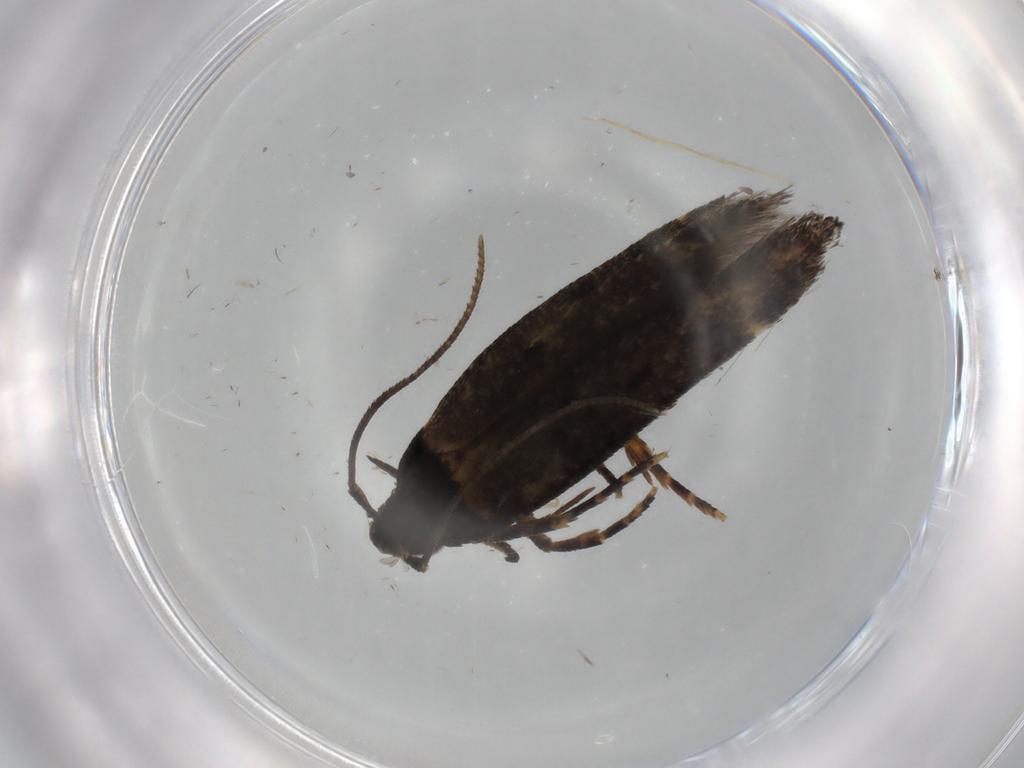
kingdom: Animalia
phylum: Arthropoda
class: Insecta
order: Lepidoptera
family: Cosmopterigidae
